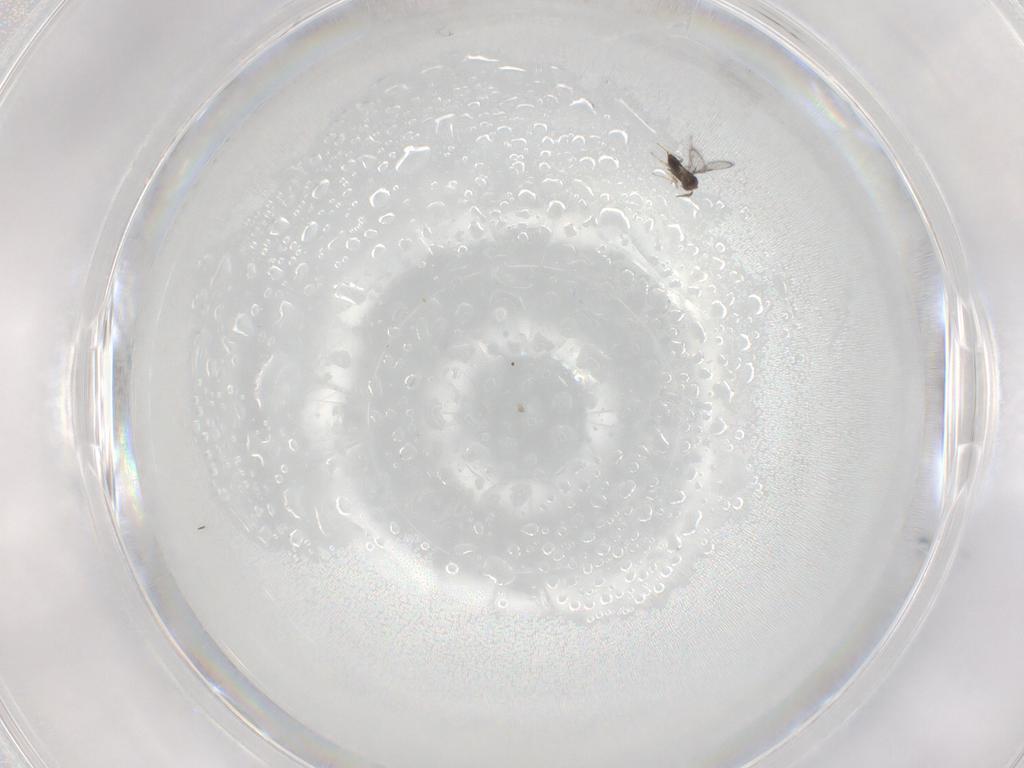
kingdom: Animalia
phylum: Arthropoda
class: Insecta
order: Hymenoptera
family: Trichogrammatidae
